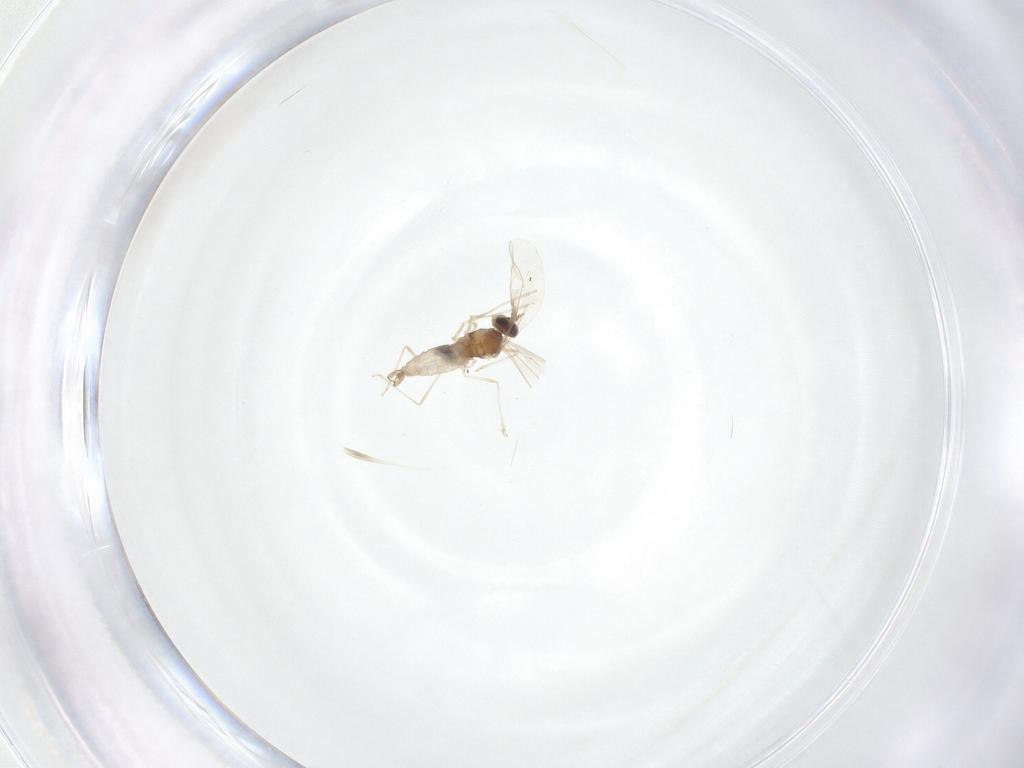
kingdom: Animalia
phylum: Arthropoda
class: Insecta
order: Diptera
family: Cecidomyiidae
